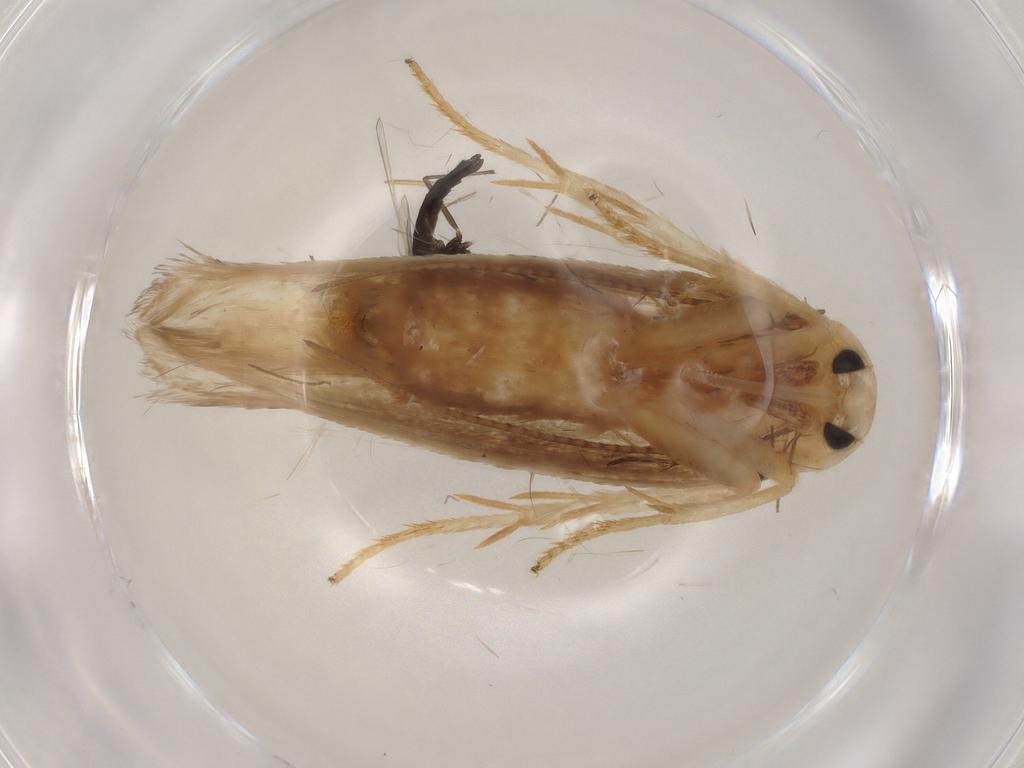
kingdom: Animalia
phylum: Arthropoda
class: Insecta
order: Lepidoptera
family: Geometridae
